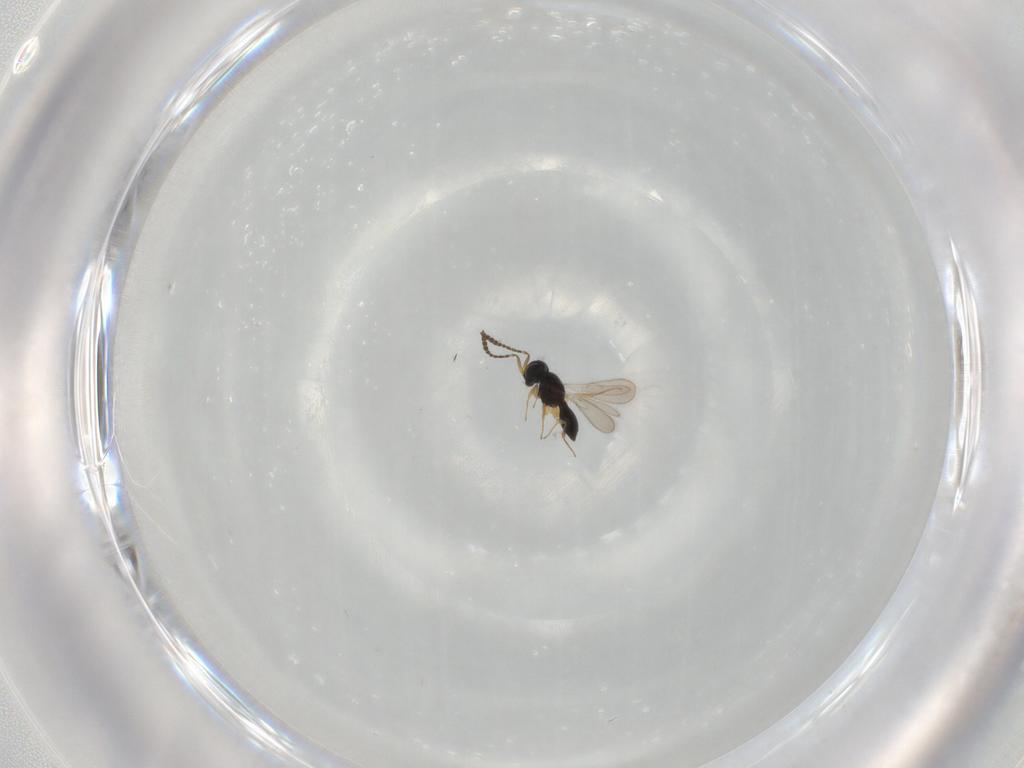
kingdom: Animalia
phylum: Arthropoda
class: Insecta
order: Hymenoptera
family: Scelionidae
